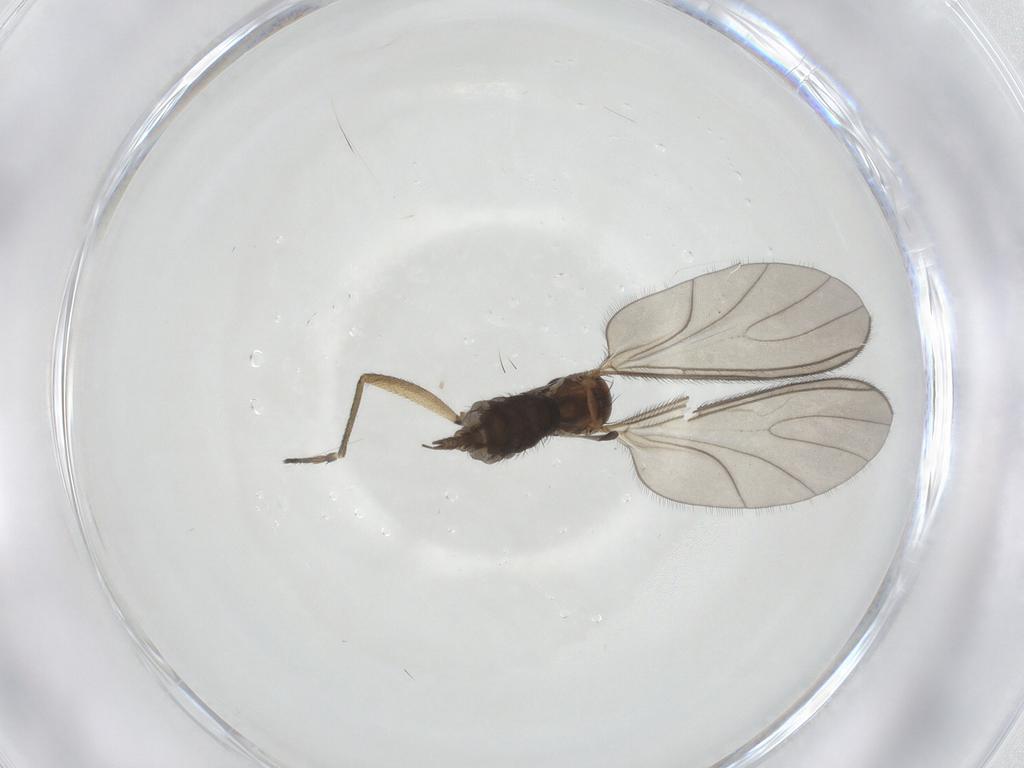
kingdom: Animalia
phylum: Arthropoda
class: Insecta
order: Diptera
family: Sciaridae
